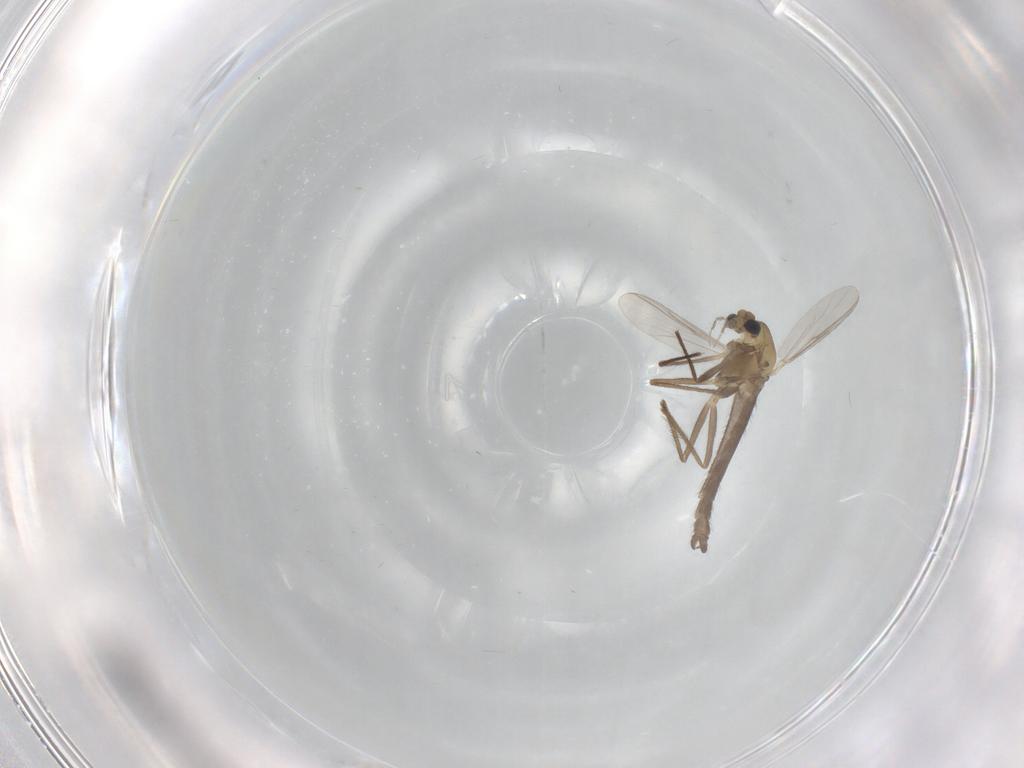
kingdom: Animalia
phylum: Arthropoda
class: Insecta
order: Diptera
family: Chironomidae
